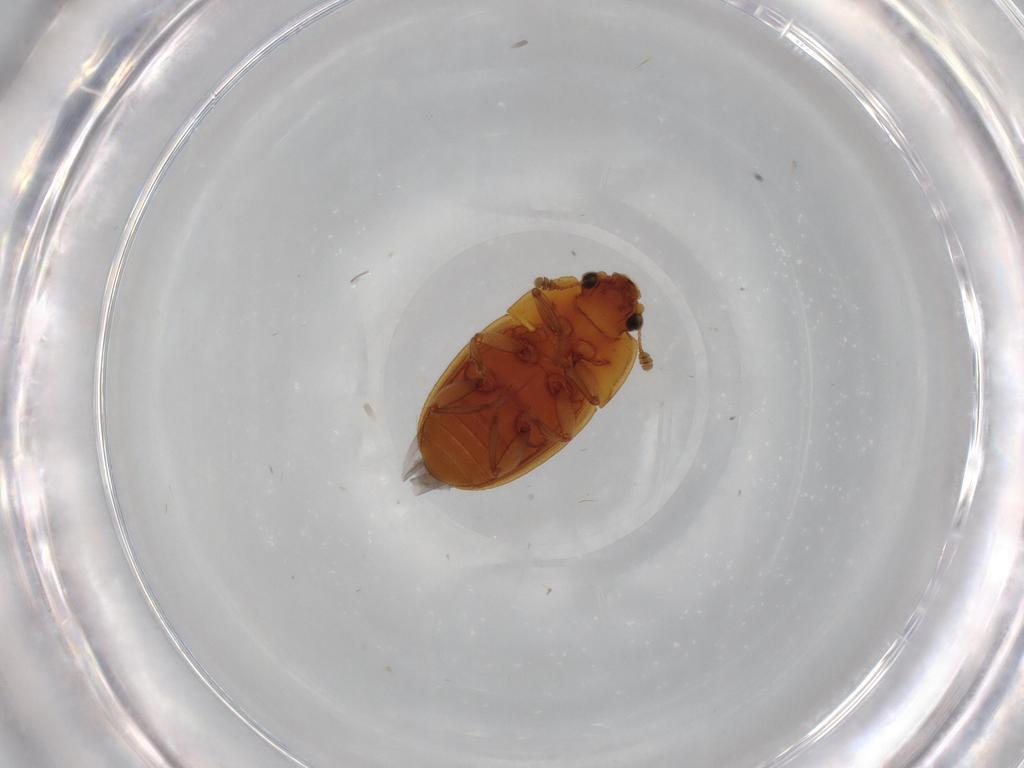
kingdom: Animalia
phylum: Arthropoda
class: Insecta
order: Coleoptera
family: Nitidulidae
